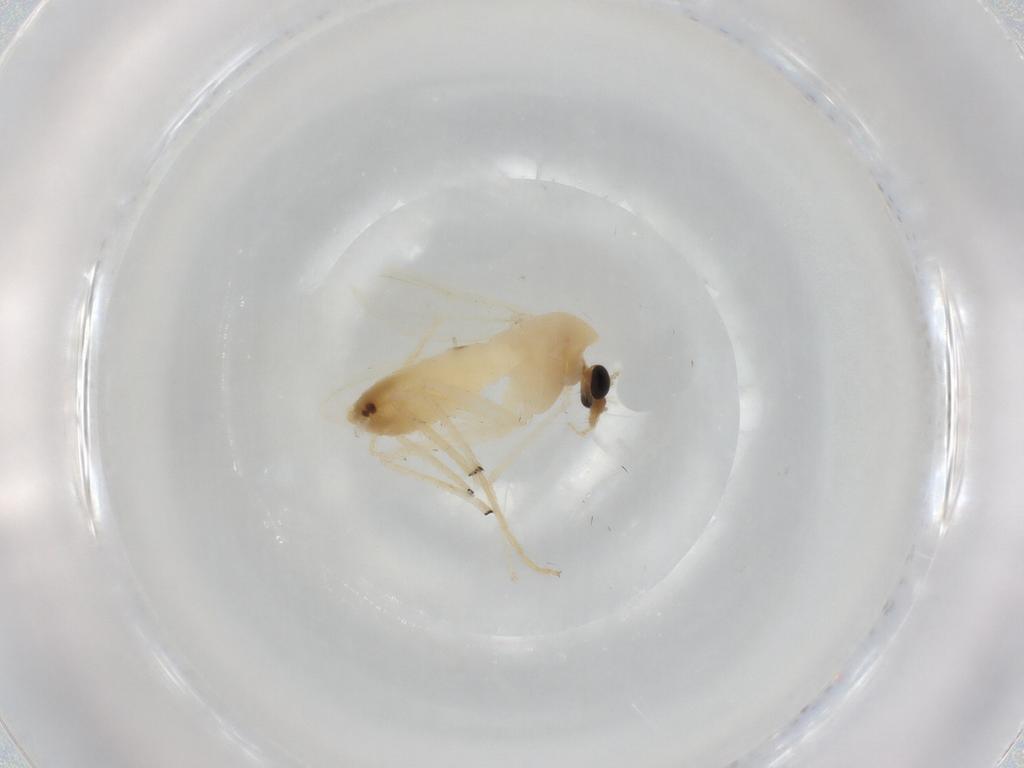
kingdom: Animalia
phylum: Arthropoda
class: Insecta
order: Diptera
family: Chironomidae
